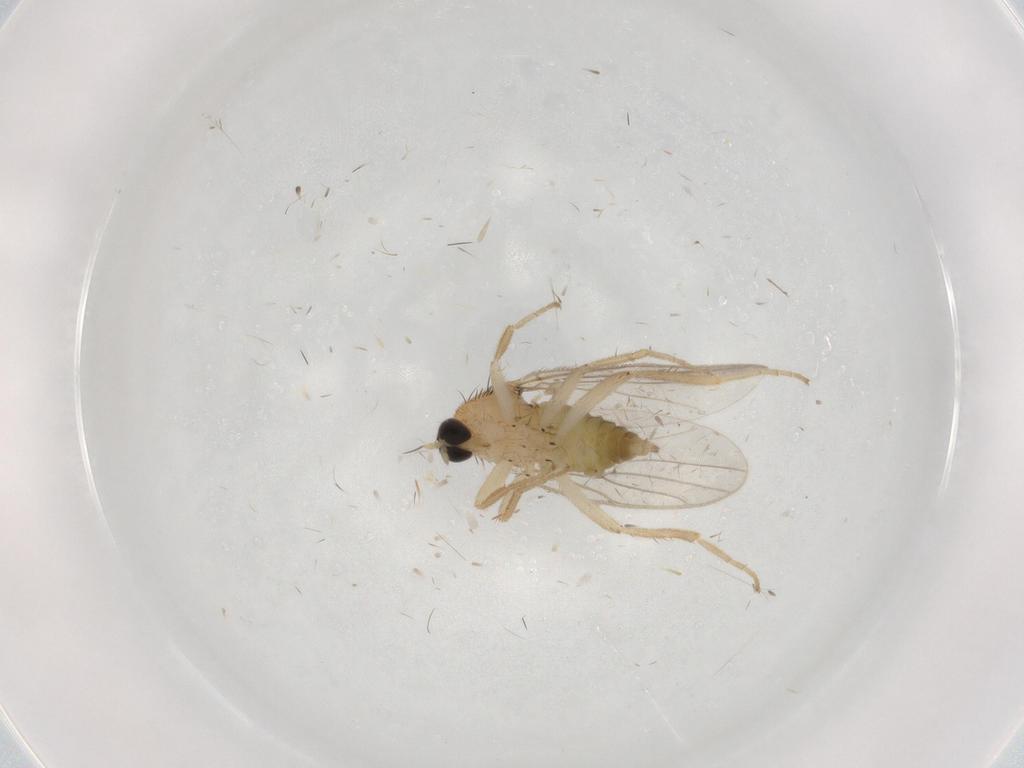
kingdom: Animalia
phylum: Arthropoda
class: Insecta
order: Diptera
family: Hybotidae
